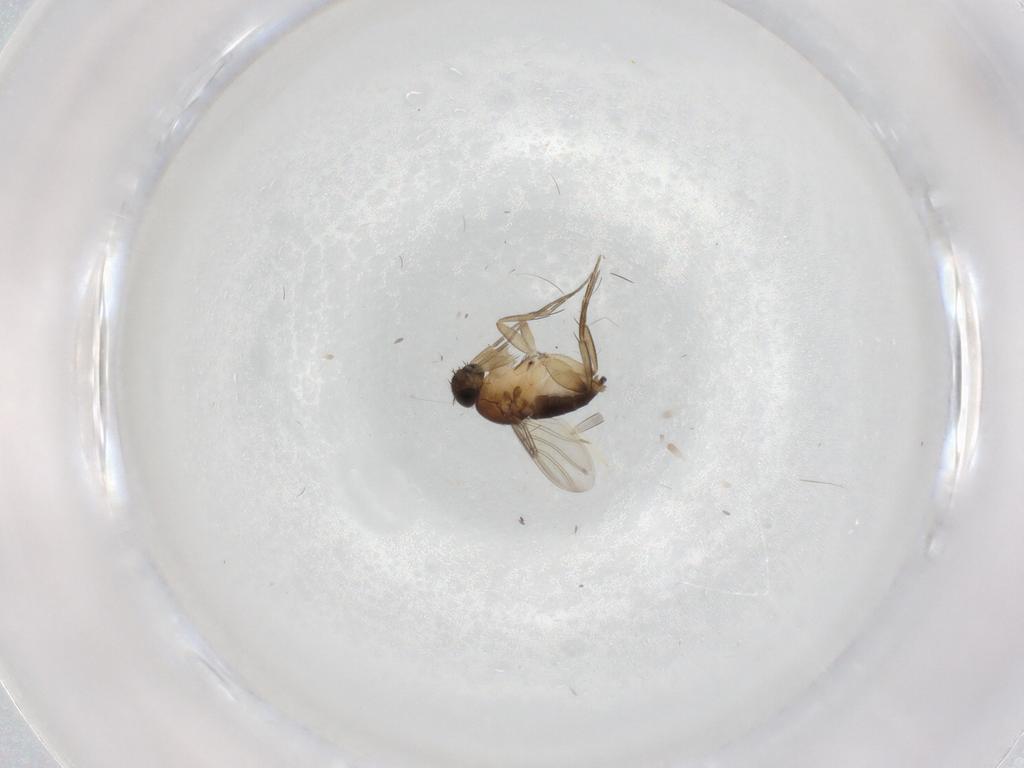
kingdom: Animalia
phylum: Arthropoda
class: Insecta
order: Diptera
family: Phoridae
